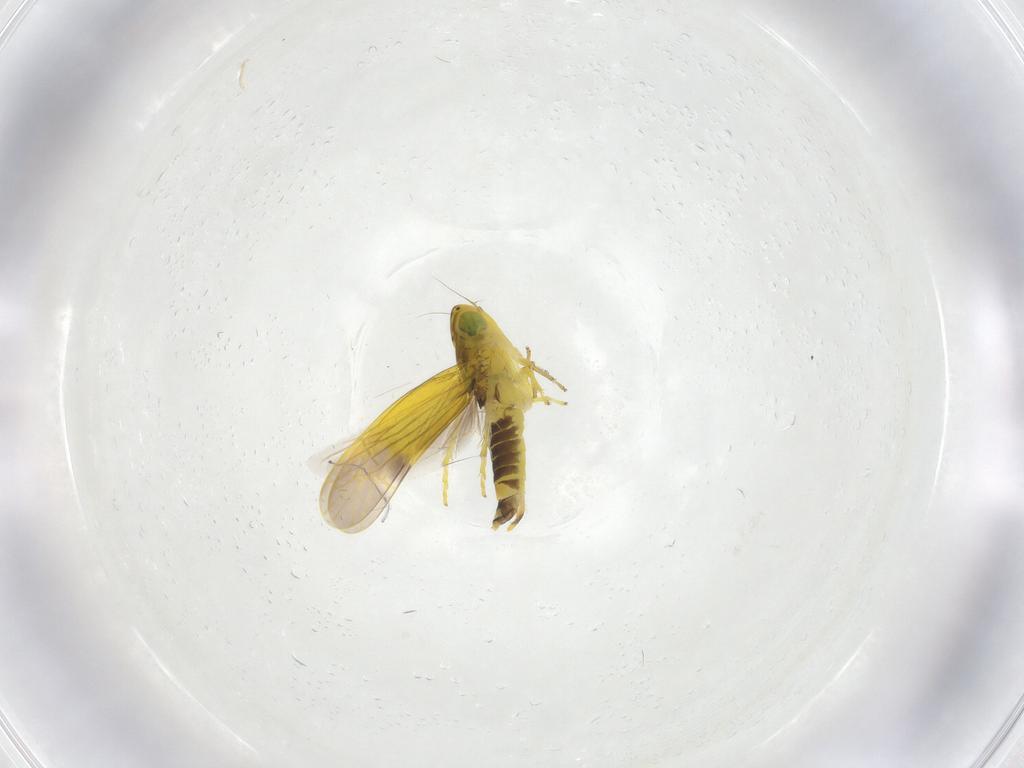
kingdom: Animalia
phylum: Arthropoda
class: Insecta
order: Hemiptera
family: Cicadellidae
